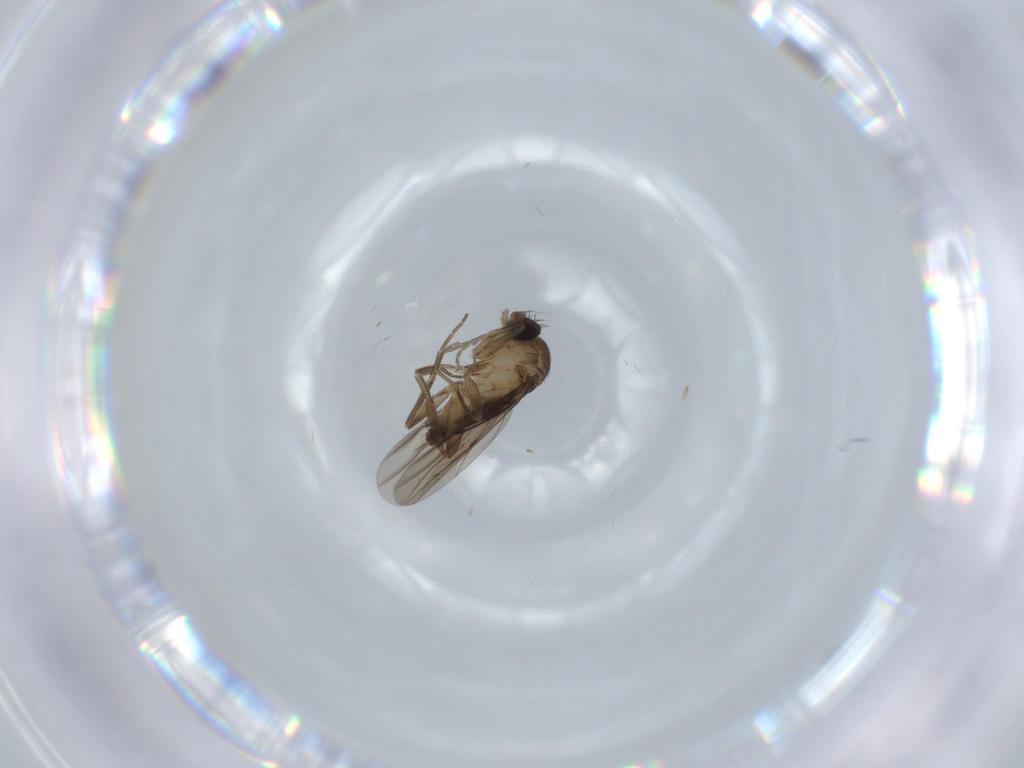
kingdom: Animalia
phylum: Arthropoda
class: Insecta
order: Diptera
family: Phoridae
